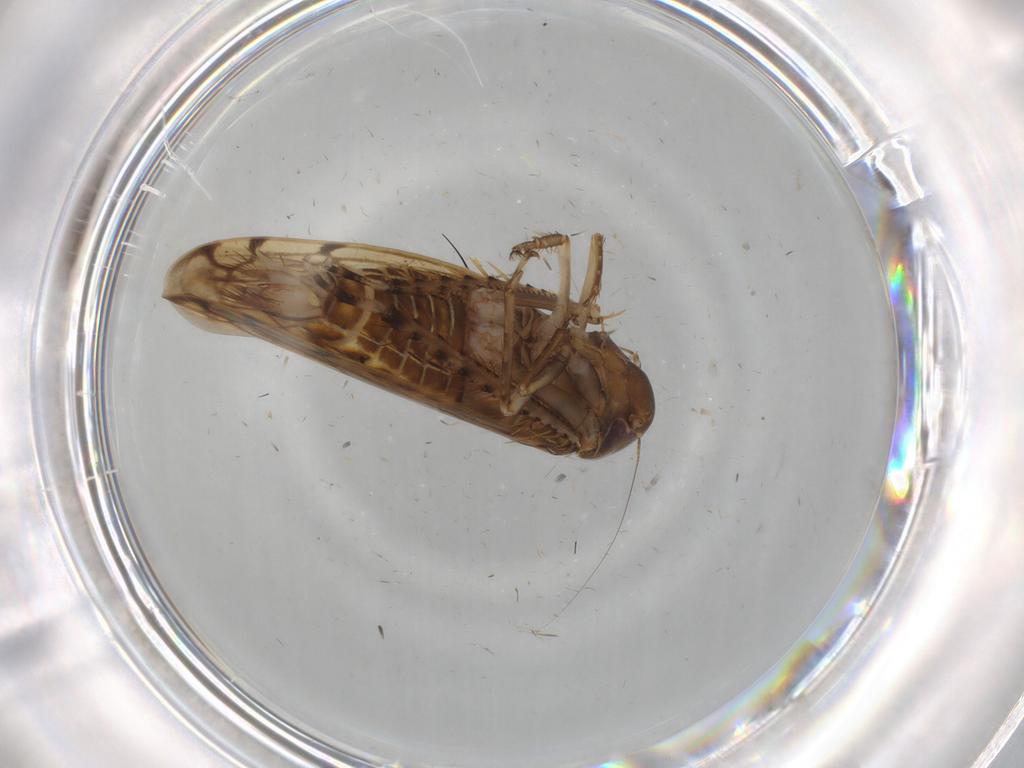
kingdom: Animalia
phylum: Arthropoda
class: Insecta
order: Hemiptera
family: Cicadellidae
